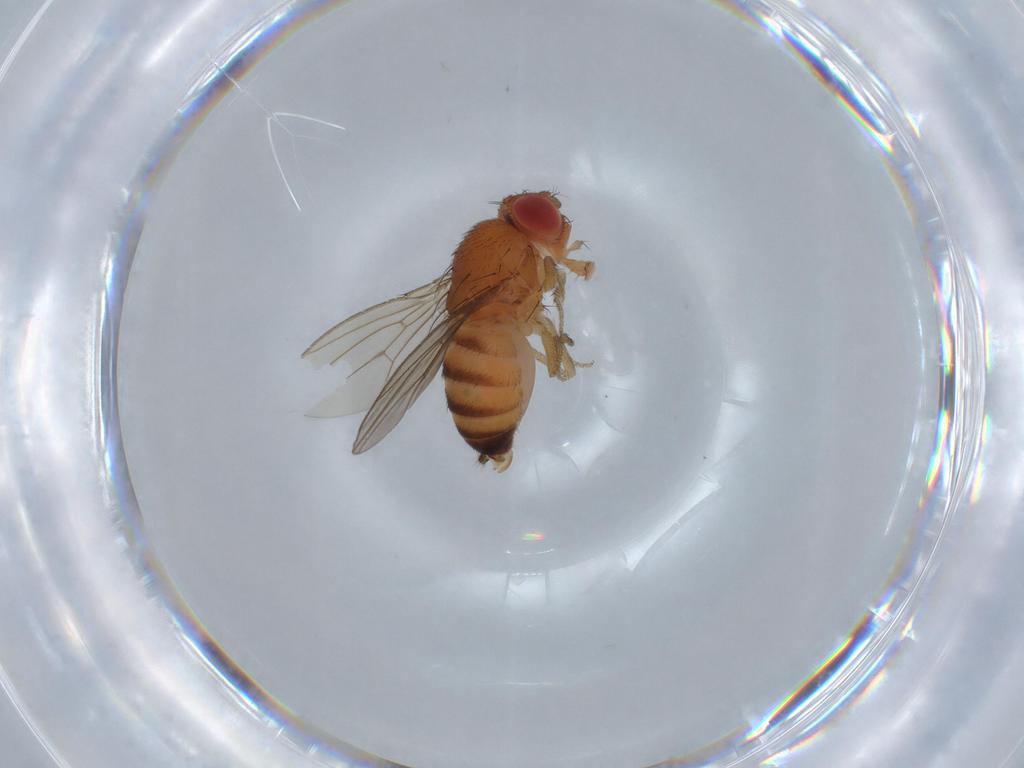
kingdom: Animalia
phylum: Arthropoda
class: Insecta
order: Diptera
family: Drosophilidae
